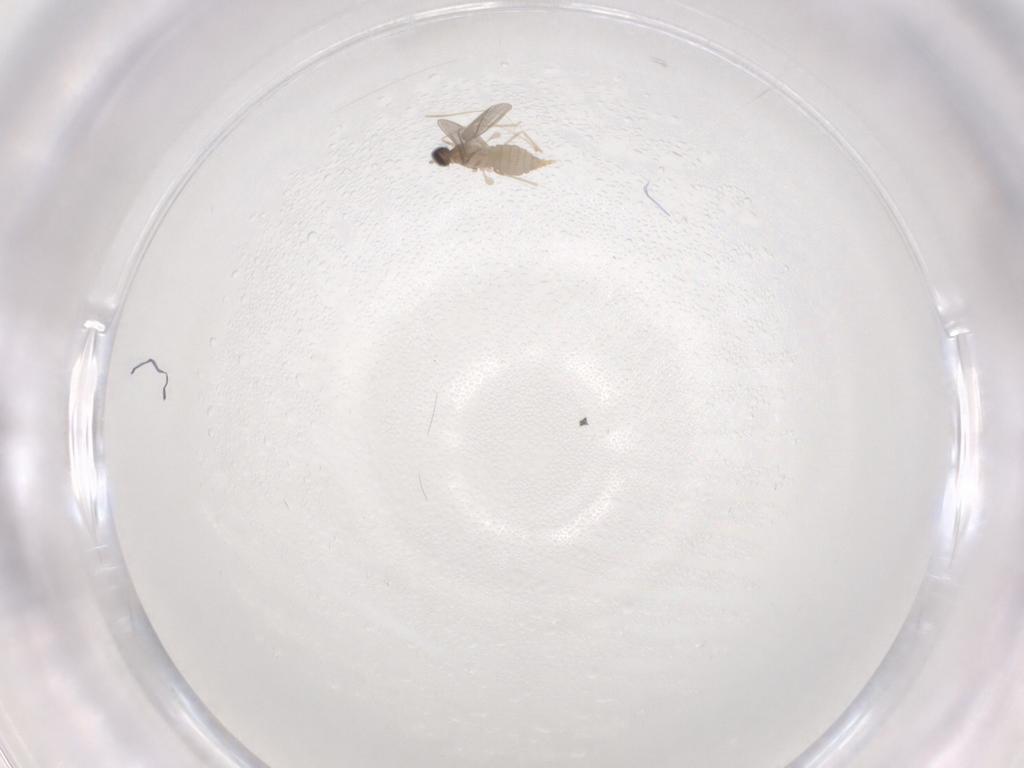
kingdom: Animalia
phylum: Arthropoda
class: Insecta
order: Diptera
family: Cecidomyiidae
